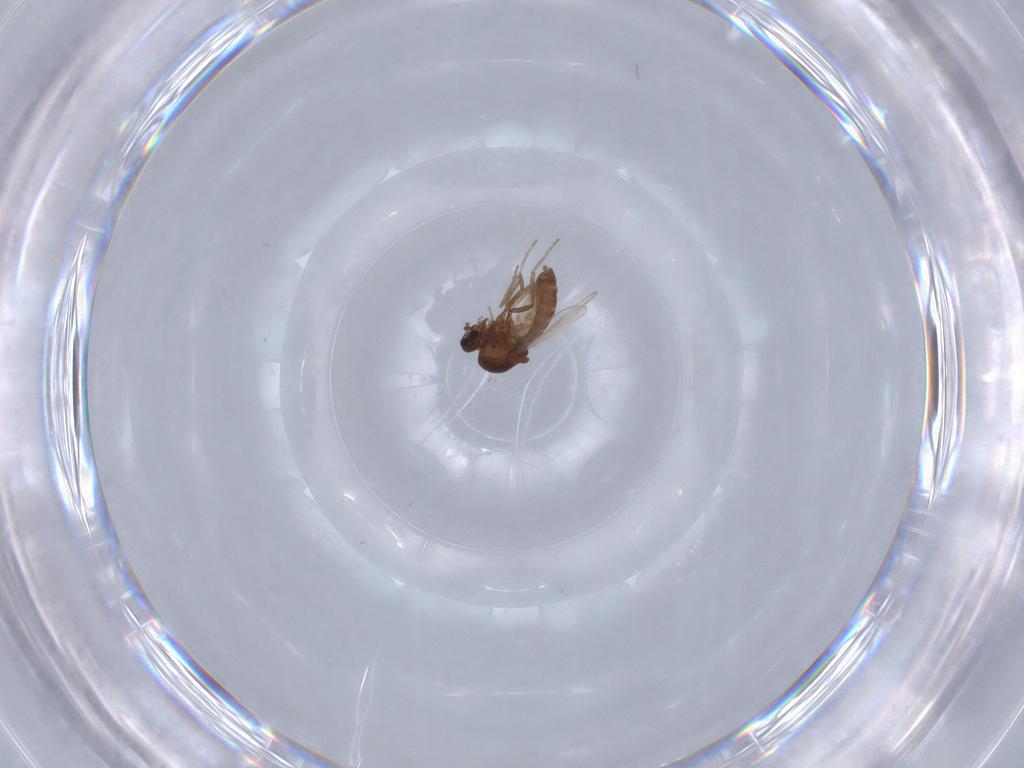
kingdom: Animalia
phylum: Arthropoda
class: Insecta
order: Diptera
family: Ceratopogonidae
